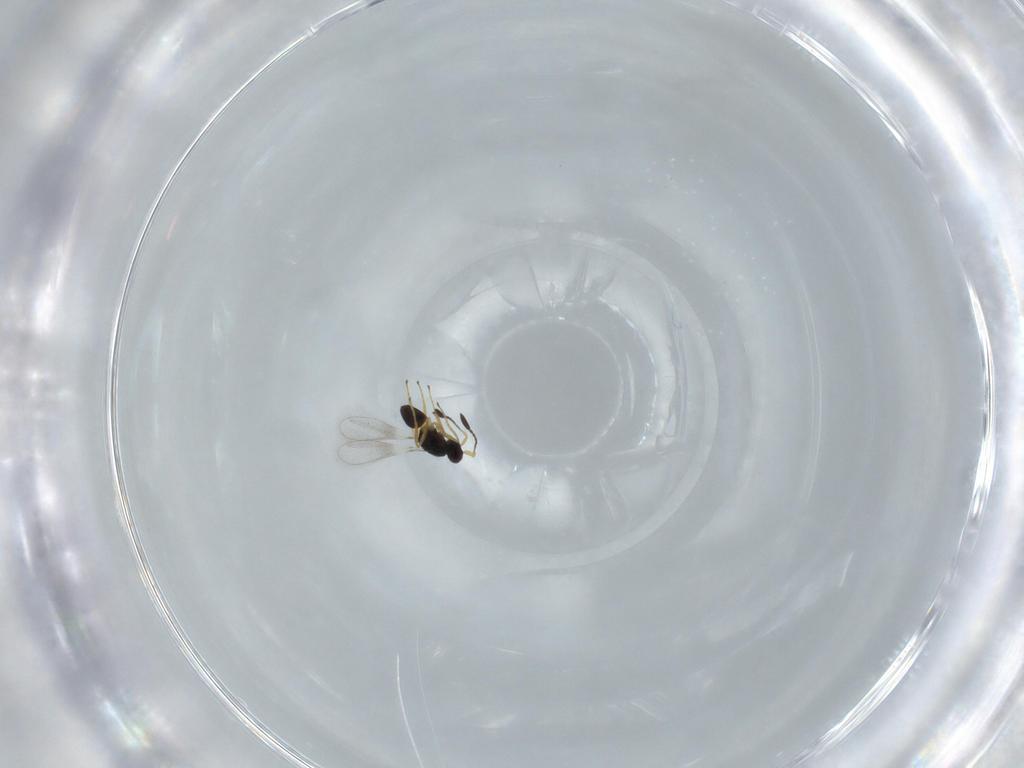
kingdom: Animalia
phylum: Arthropoda
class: Insecta
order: Hymenoptera
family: Mymaridae
